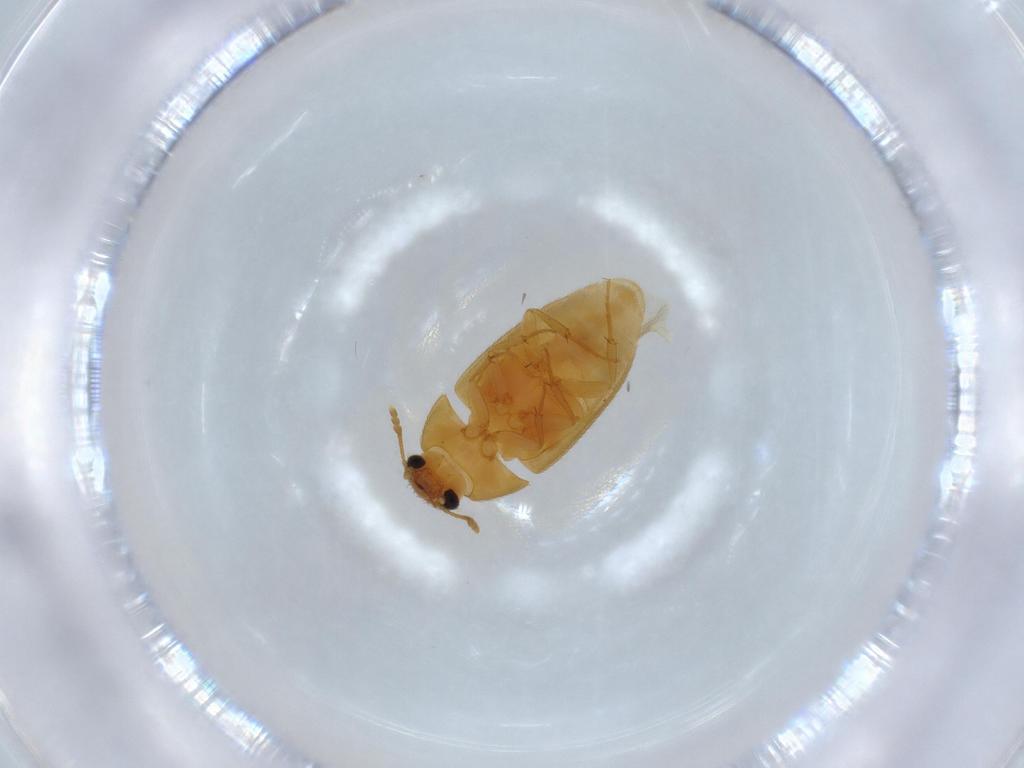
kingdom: Animalia
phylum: Arthropoda
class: Insecta
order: Coleoptera
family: Mycetophagidae
